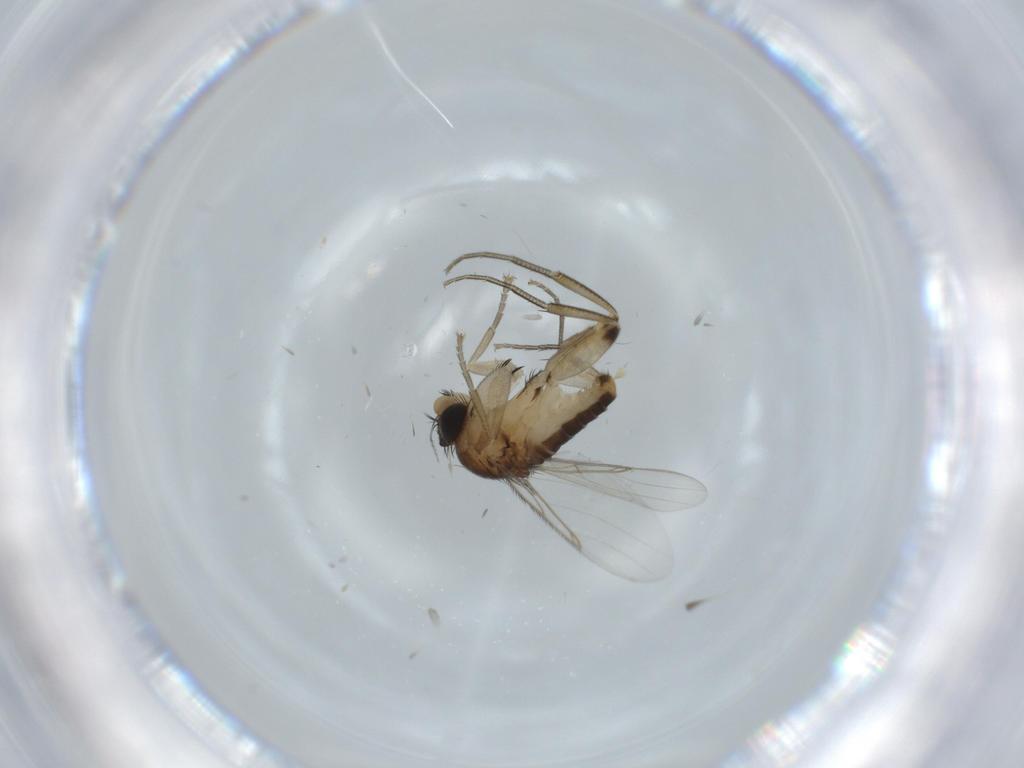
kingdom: Animalia
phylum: Arthropoda
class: Insecta
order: Diptera
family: Phoridae
